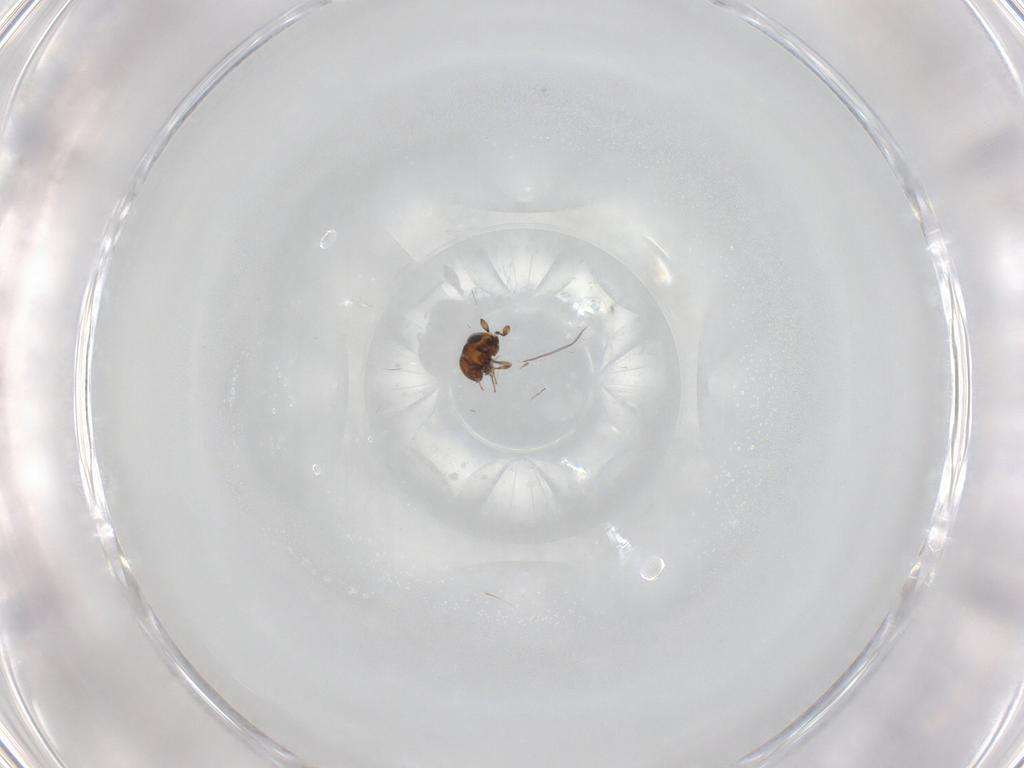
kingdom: Animalia
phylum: Arthropoda
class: Insecta
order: Hymenoptera
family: Scelionidae
